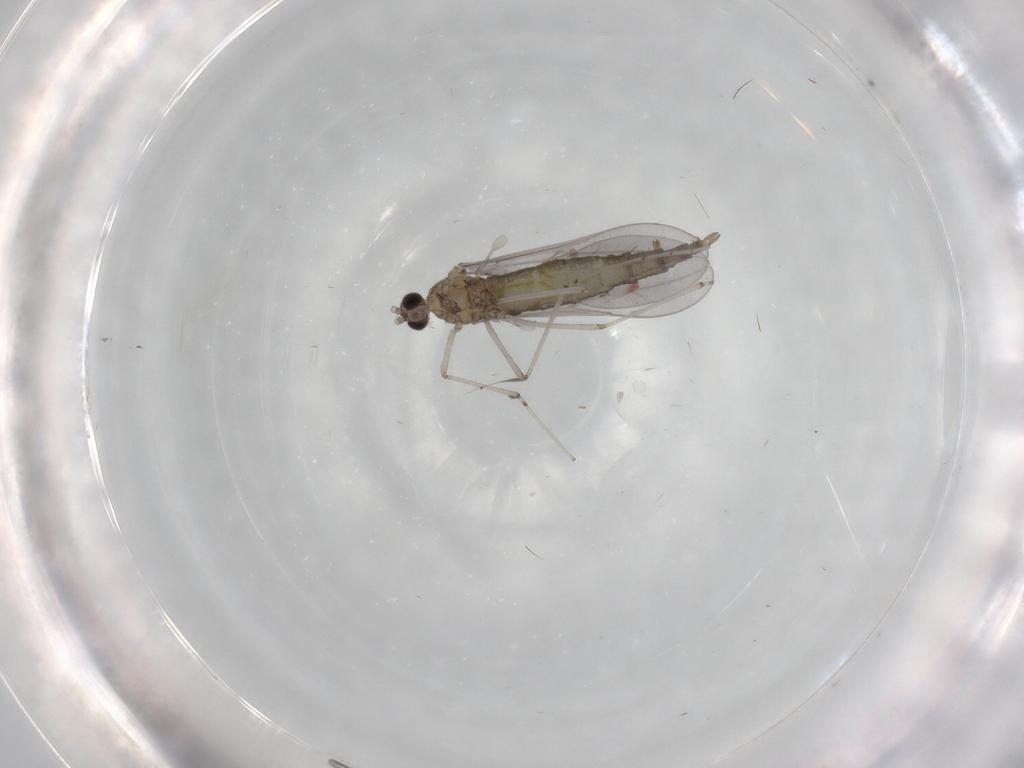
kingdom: Animalia
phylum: Arthropoda
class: Insecta
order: Diptera
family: Cecidomyiidae
